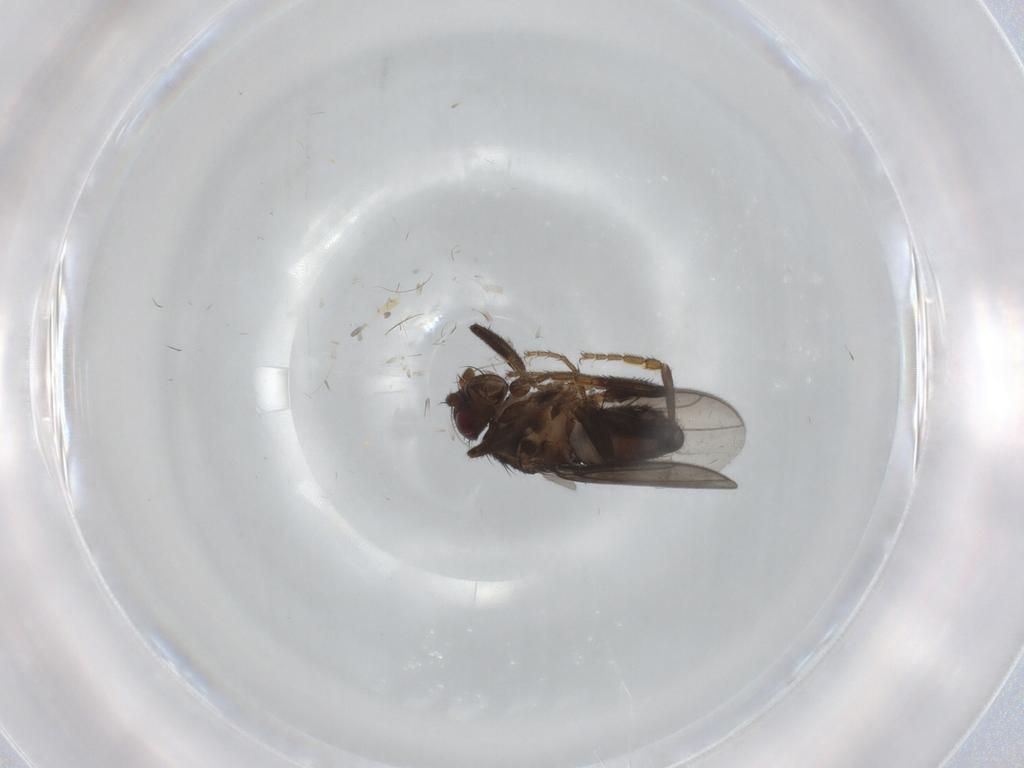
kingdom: Animalia
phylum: Arthropoda
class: Insecta
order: Diptera
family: Sphaeroceridae
